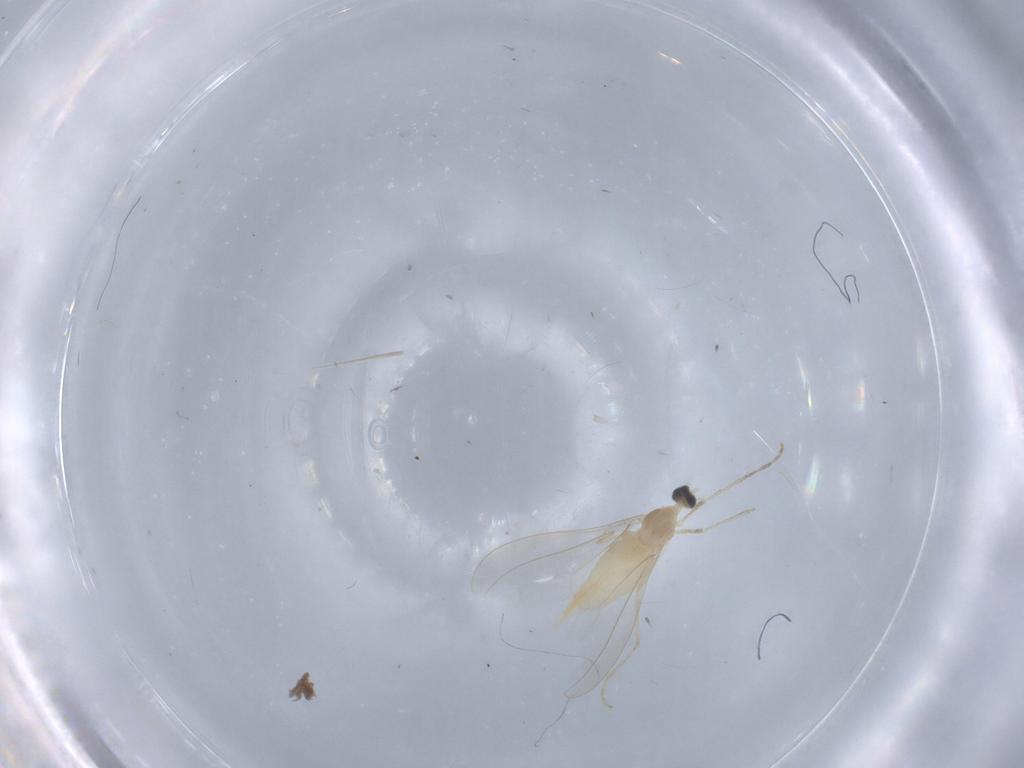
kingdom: Animalia
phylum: Arthropoda
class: Insecta
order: Diptera
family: Cecidomyiidae
